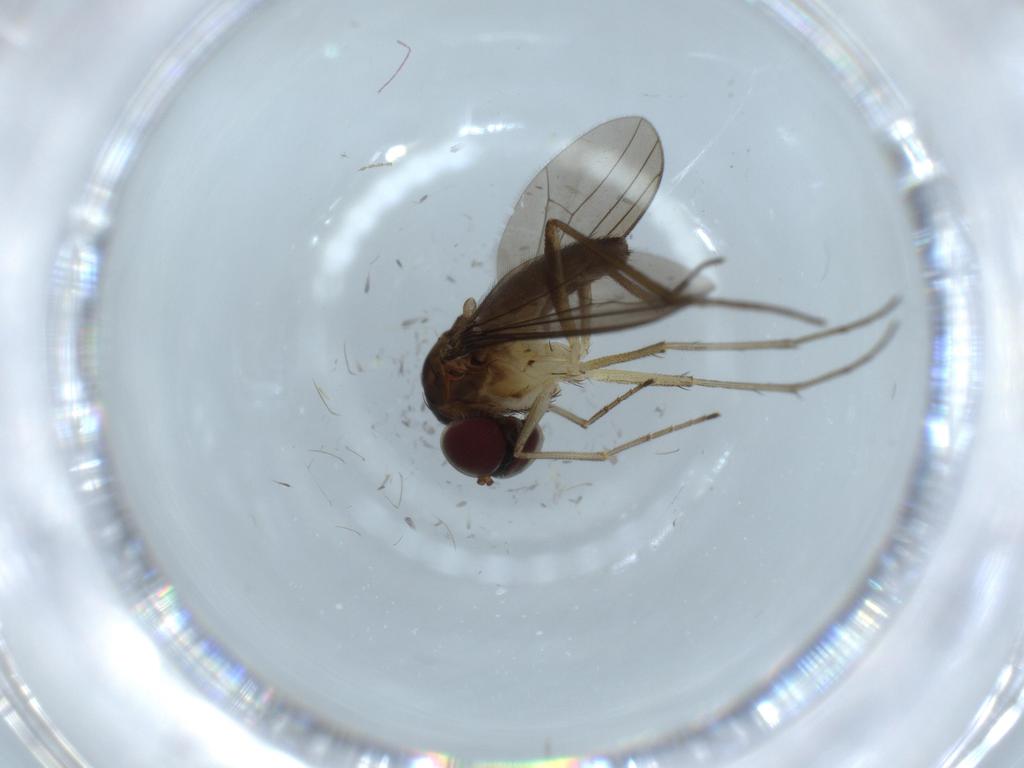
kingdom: Animalia
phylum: Arthropoda
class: Insecta
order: Diptera
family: Dolichopodidae
